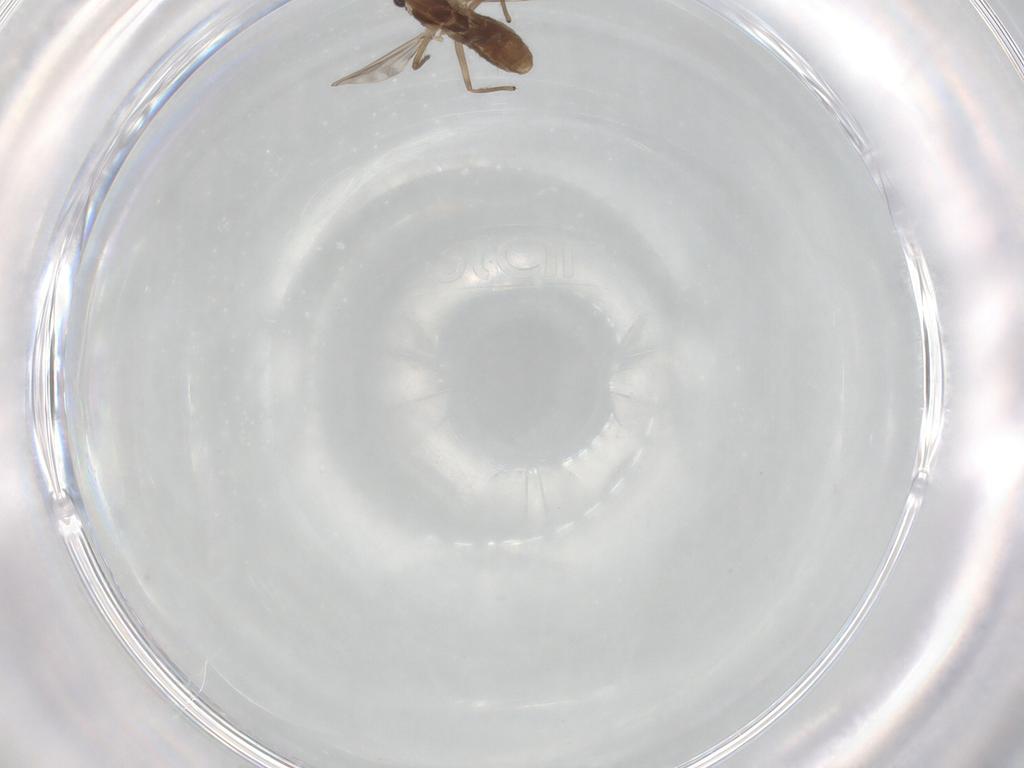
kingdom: Animalia
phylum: Arthropoda
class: Insecta
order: Diptera
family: Chironomidae
